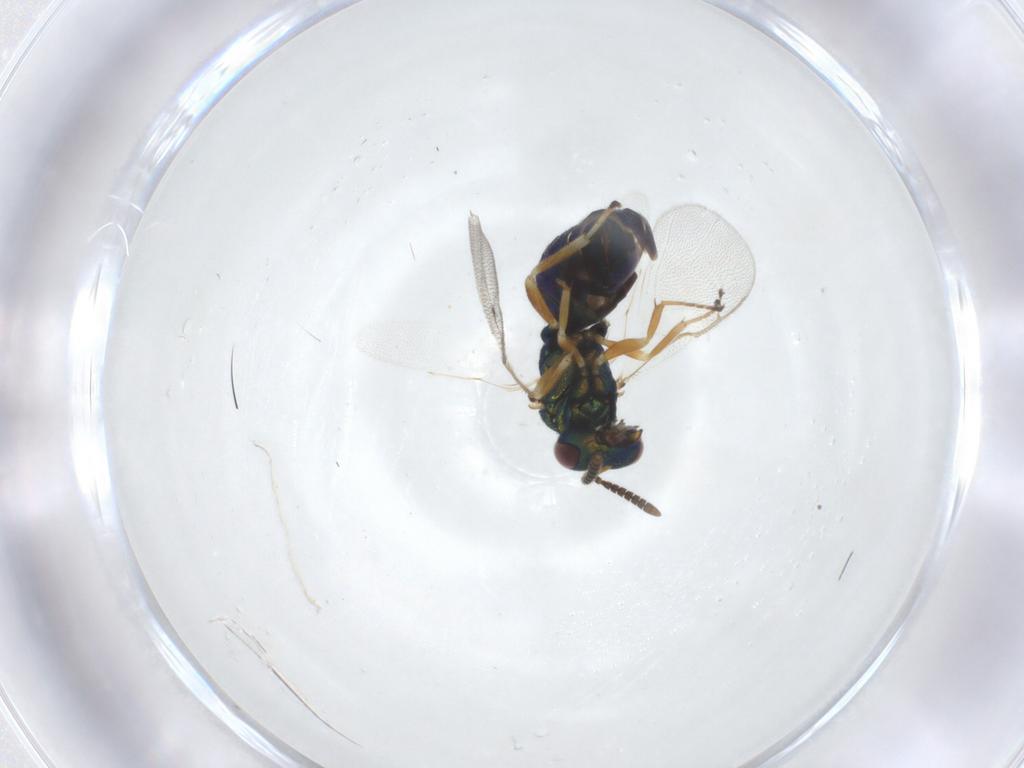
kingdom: Animalia
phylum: Arthropoda
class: Insecta
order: Hymenoptera
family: Pteromalidae
